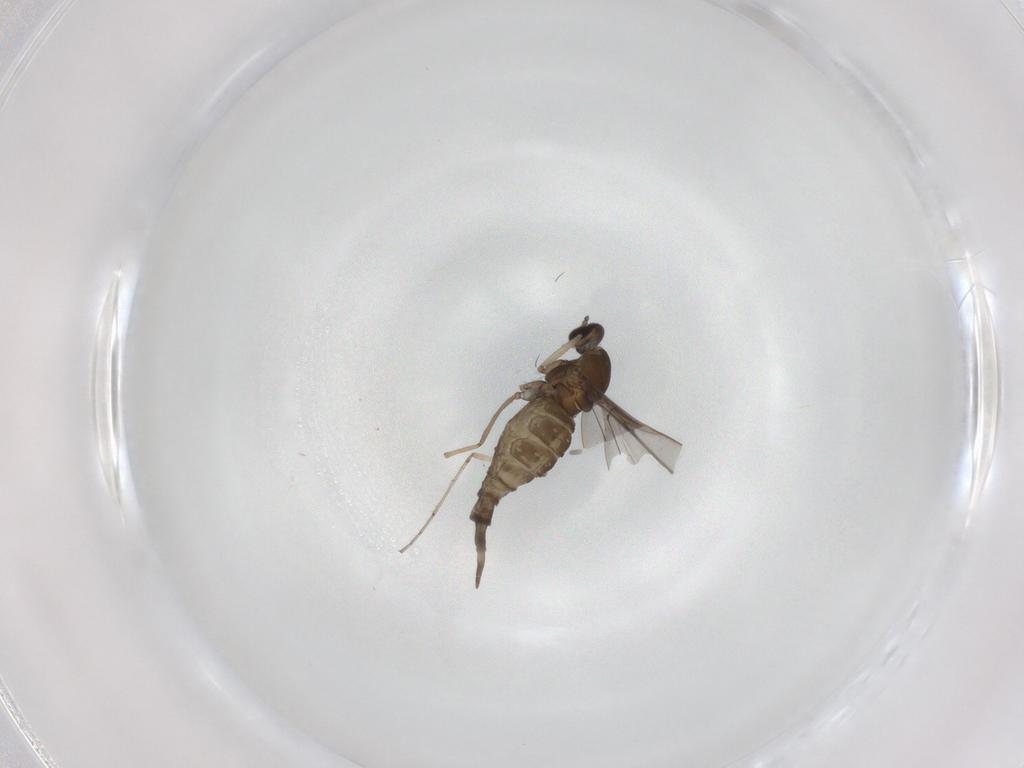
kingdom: Animalia
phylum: Arthropoda
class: Insecta
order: Diptera
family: Cecidomyiidae
